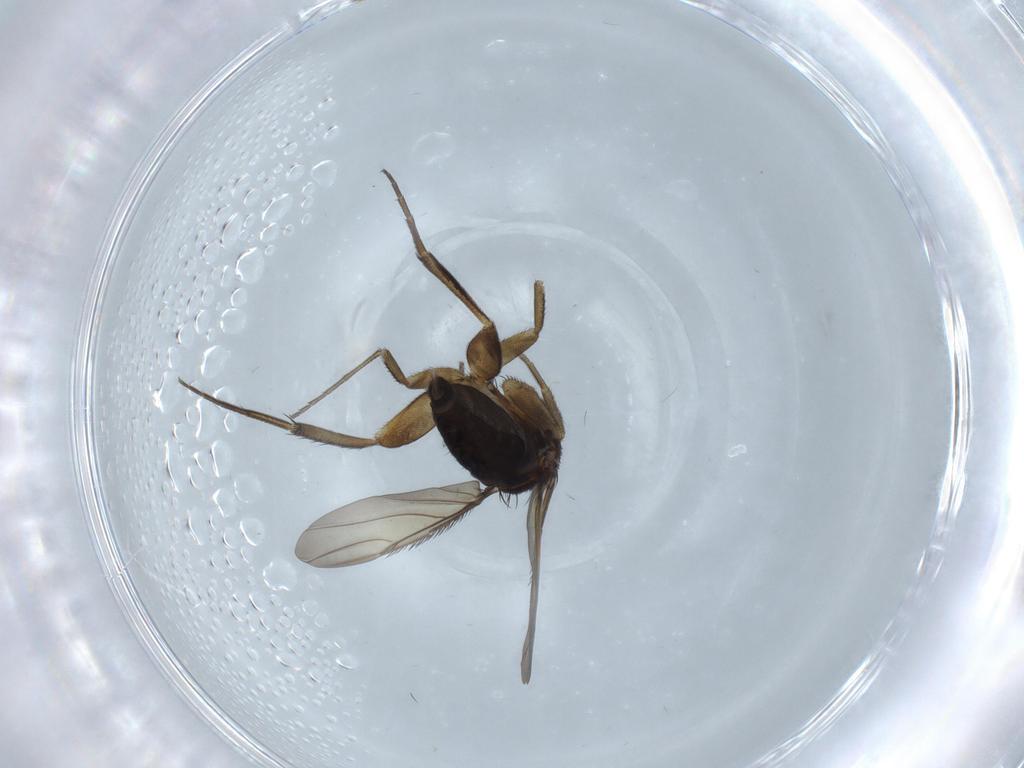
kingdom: Animalia
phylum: Arthropoda
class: Insecta
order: Diptera
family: Phoridae
